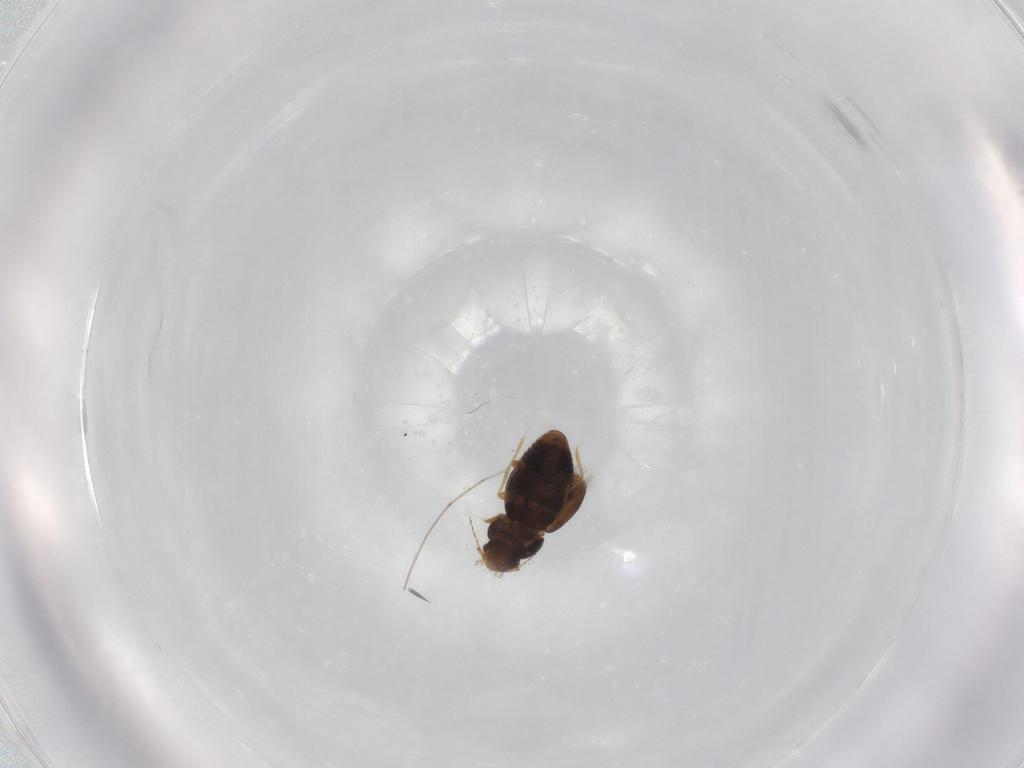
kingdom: Animalia
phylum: Arthropoda
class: Insecta
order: Coleoptera
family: Ptiliidae
